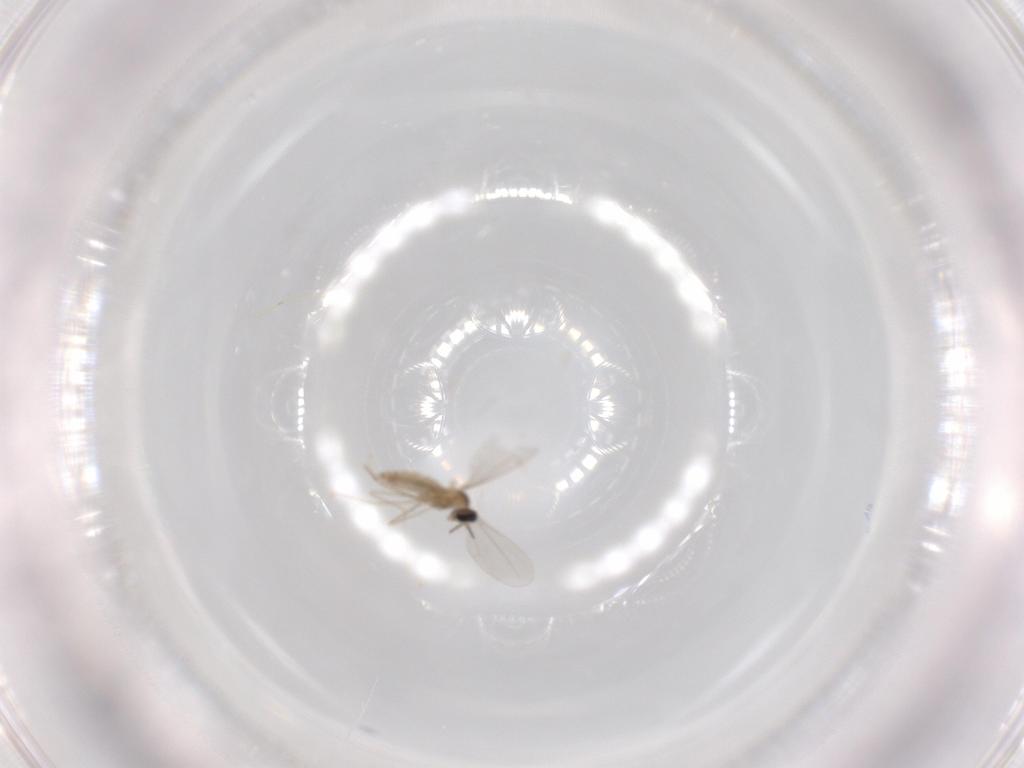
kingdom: Animalia
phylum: Arthropoda
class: Insecta
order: Diptera
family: Cecidomyiidae
